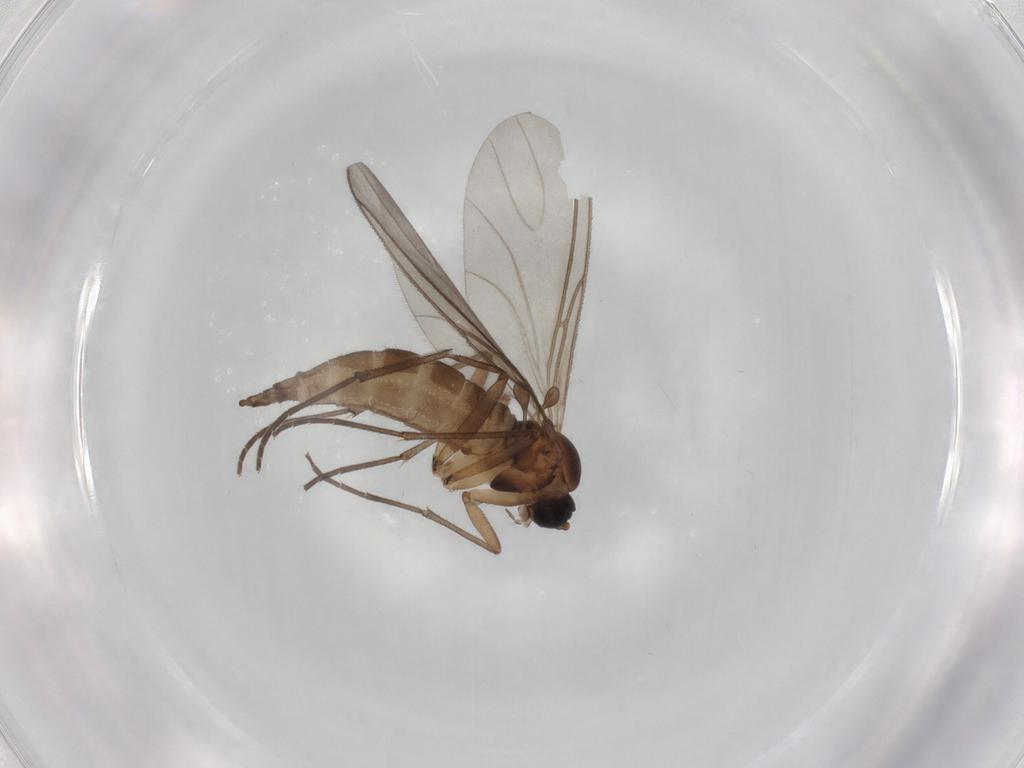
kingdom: Animalia
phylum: Arthropoda
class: Insecta
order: Diptera
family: Sciaridae
